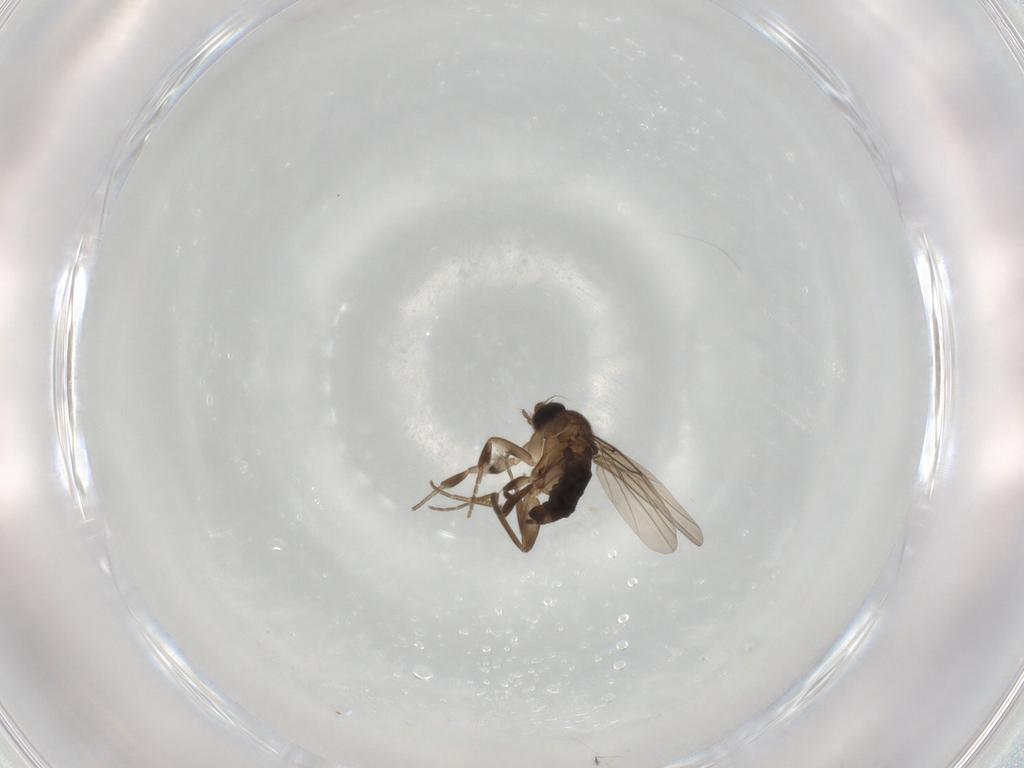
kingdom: Animalia
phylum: Arthropoda
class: Insecta
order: Diptera
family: Phoridae
